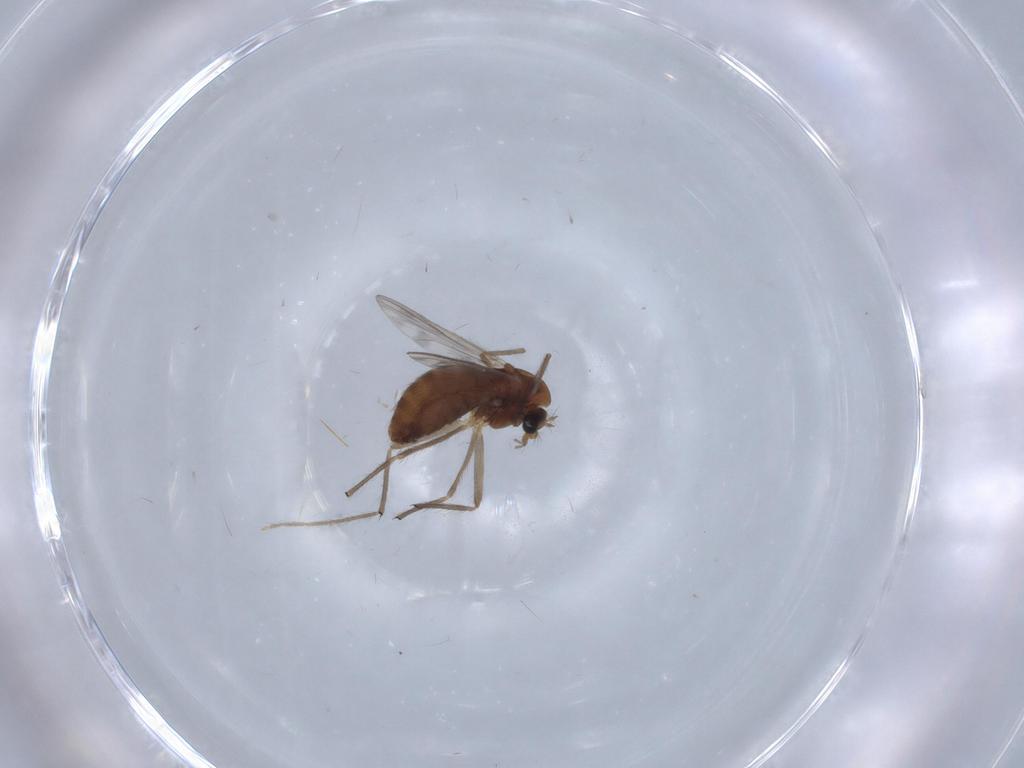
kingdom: Animalia
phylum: Arthropoda
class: Insecta
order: Diptera
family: Chironomidae
